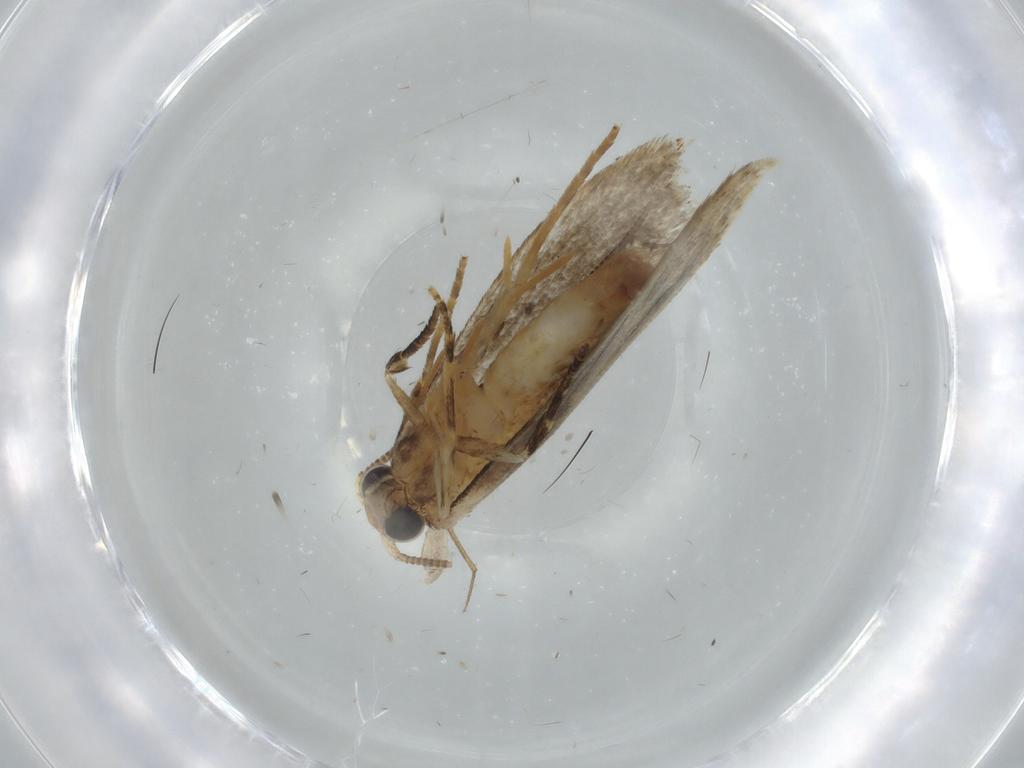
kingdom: Animalia
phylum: Arthropoda
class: Insecta
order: Lepidoptera
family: Tineidae
